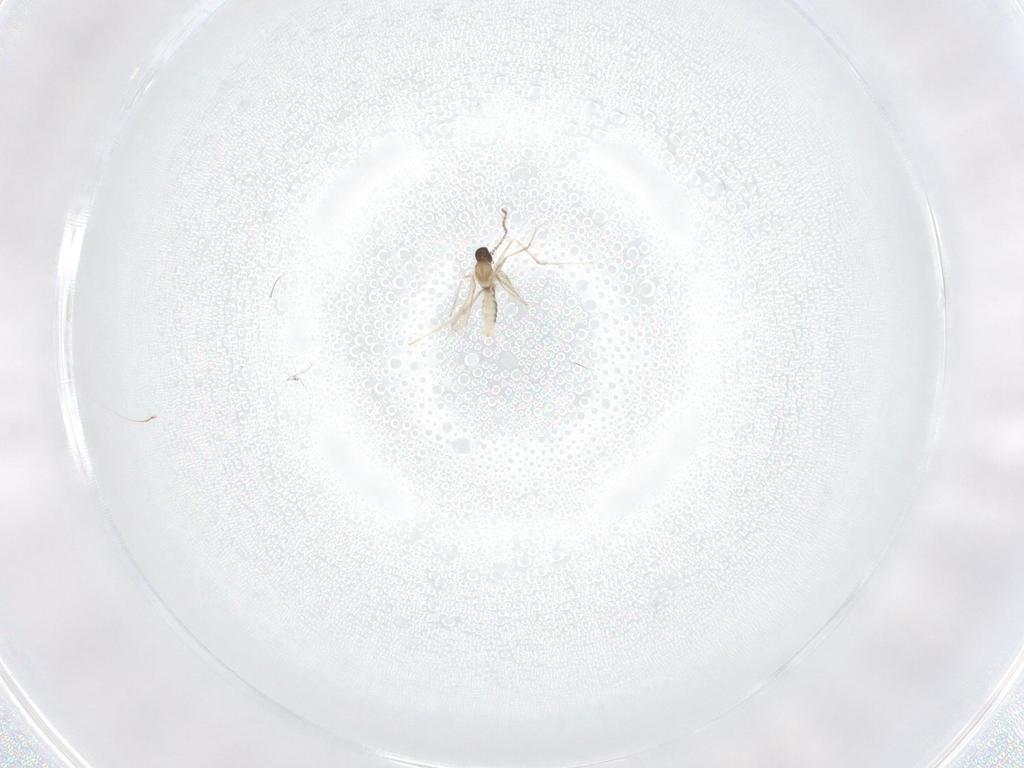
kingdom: Animalia
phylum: Arthropoda
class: Insecta
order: Diptera
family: Cecidomyiidae
